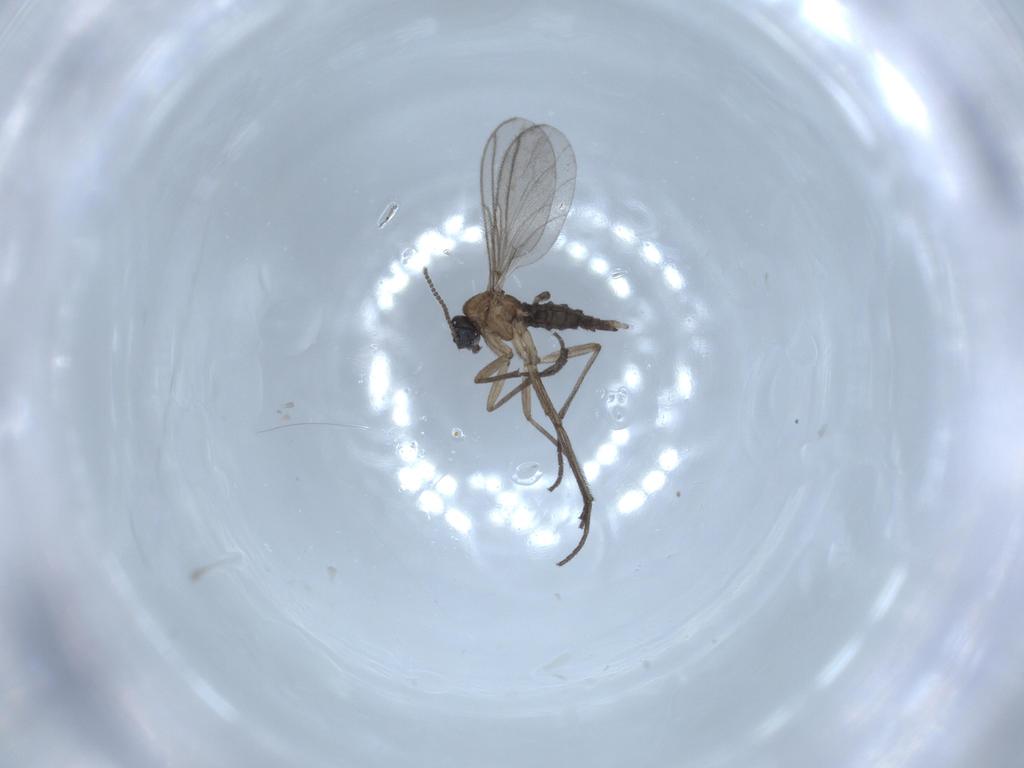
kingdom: Animalia
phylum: Arthropoda
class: Insecta
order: Diptera
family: Sciaridae
